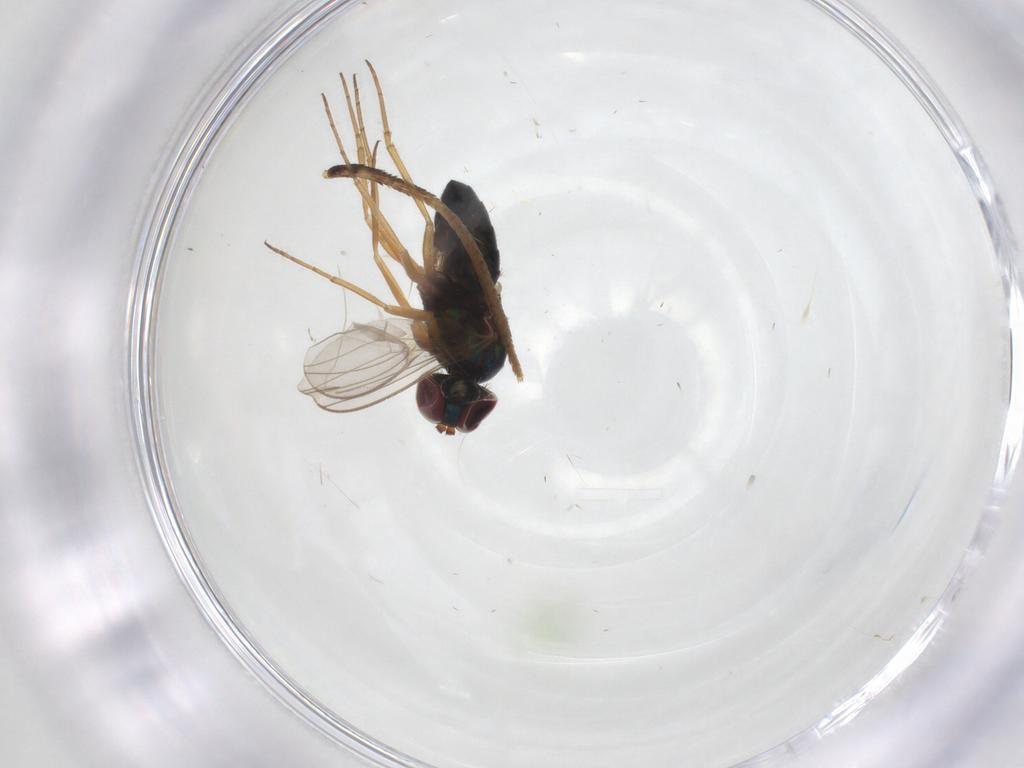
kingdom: Animalia
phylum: Arthropoda
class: Insecta
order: Diptera
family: Dolichopodidae
